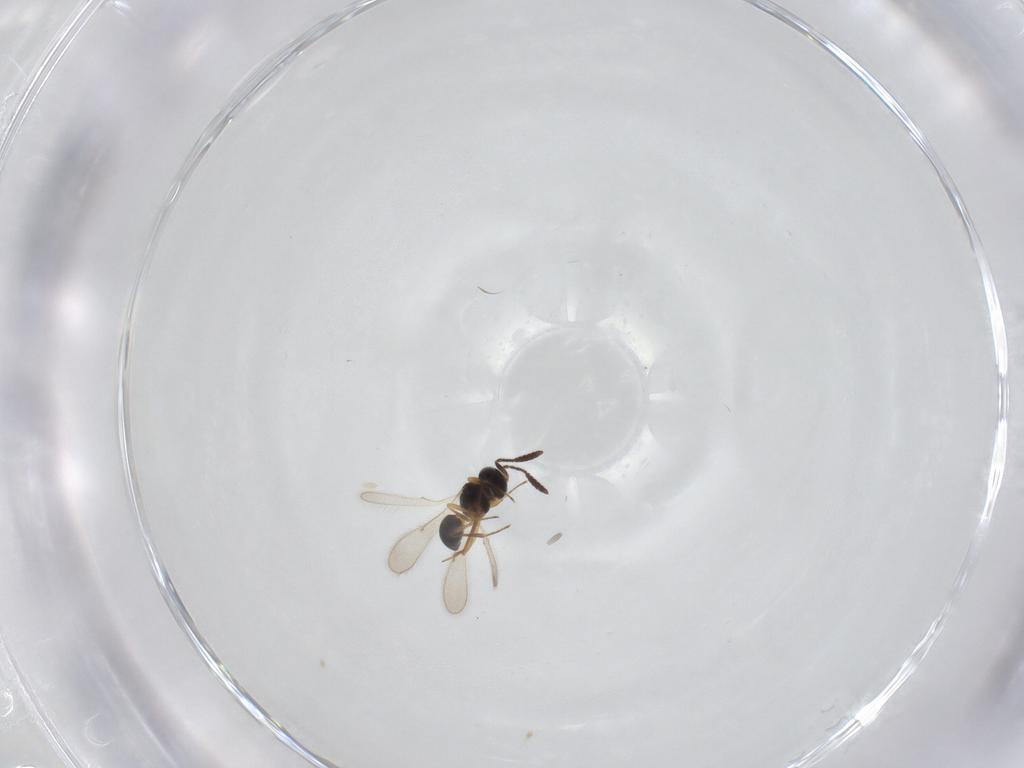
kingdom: Animalia
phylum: Arthropoda
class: Insecta
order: Hymenoptera
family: Scelionidae
